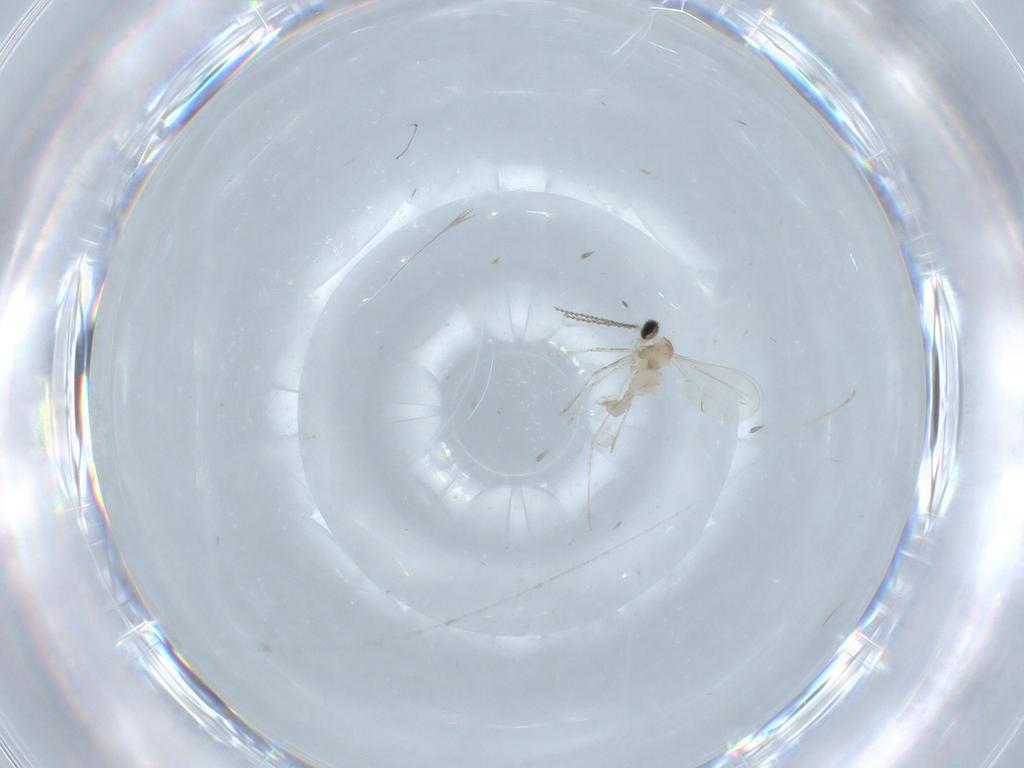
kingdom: Animalia
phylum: Arthropoda
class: Insecta
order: Diptera
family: Cecidomyiidae
